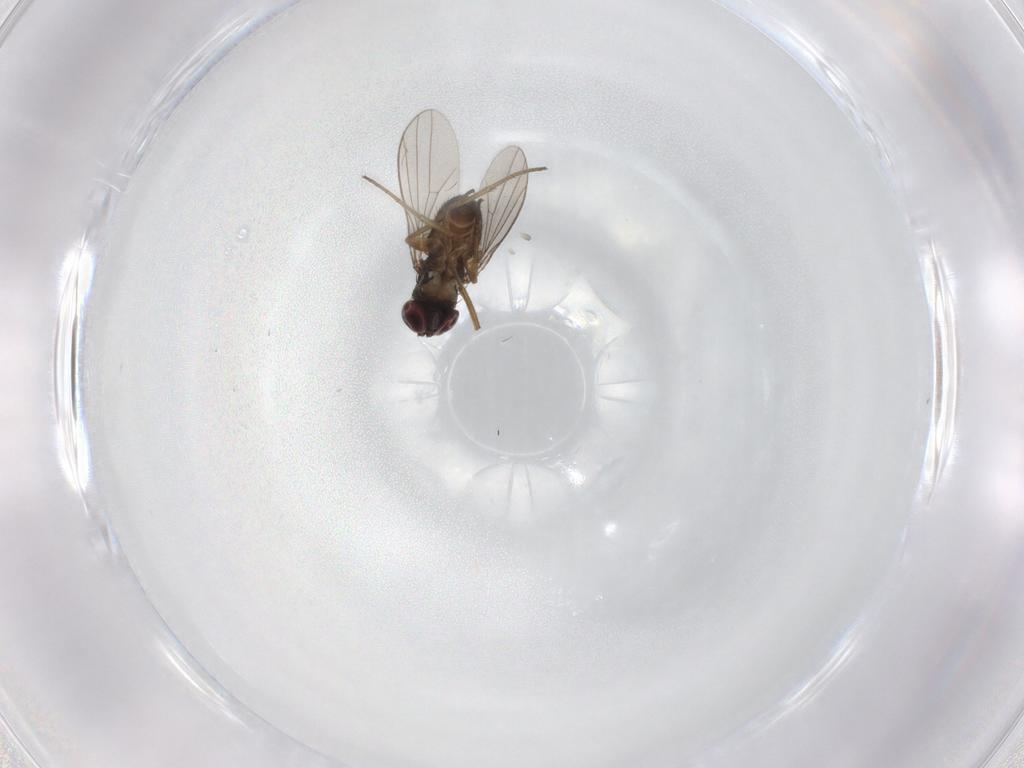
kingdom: Animalia
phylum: Arthropoda
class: Insecta
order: Diptera
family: Dolichopodidae
